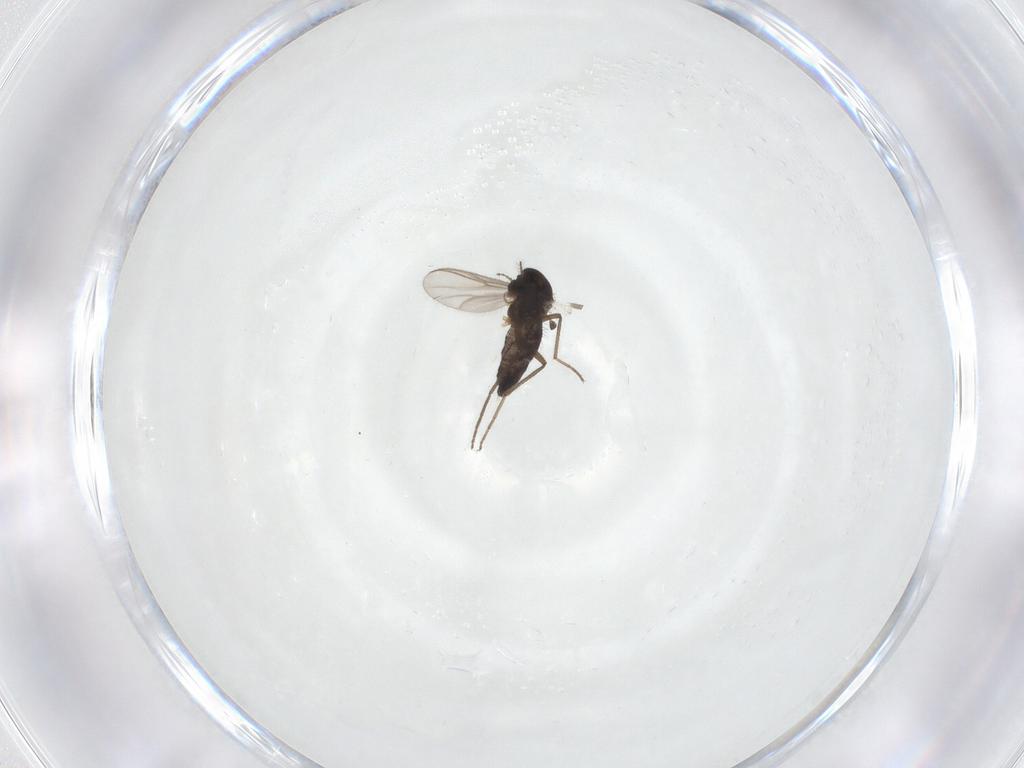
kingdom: Animalia
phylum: Arthropoda
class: Insecta
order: Diptera
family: Chironomidae
